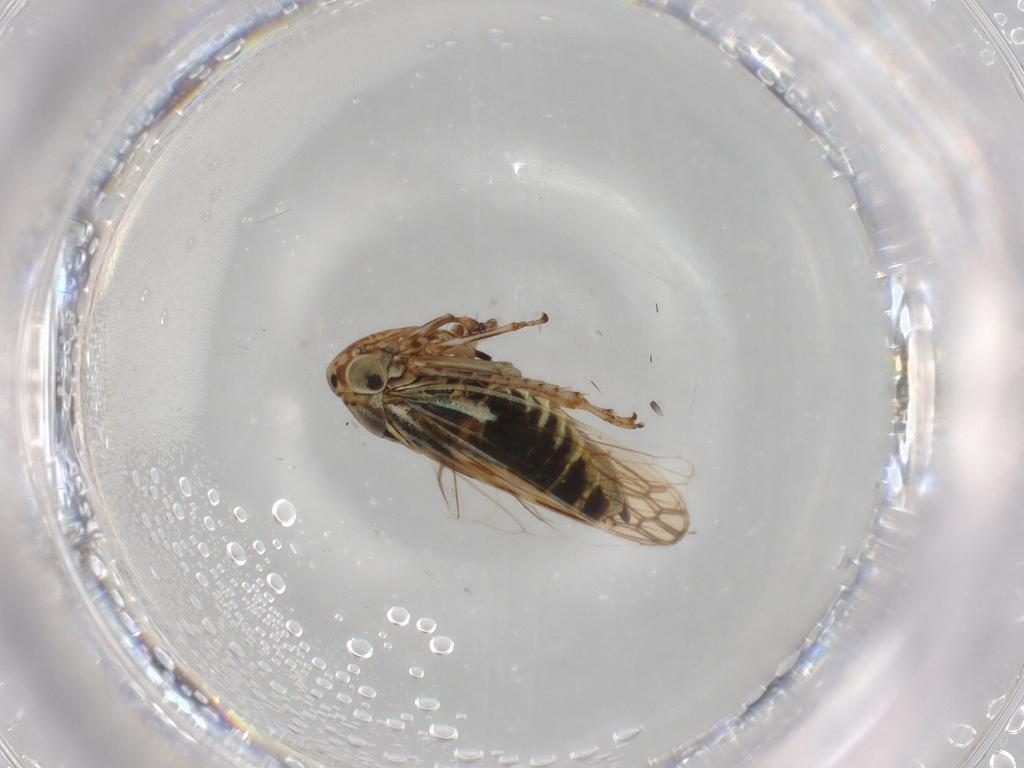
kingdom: Animalia
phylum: Arthropoda
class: Insecta
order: Hemiptera
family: Cicadellidae
